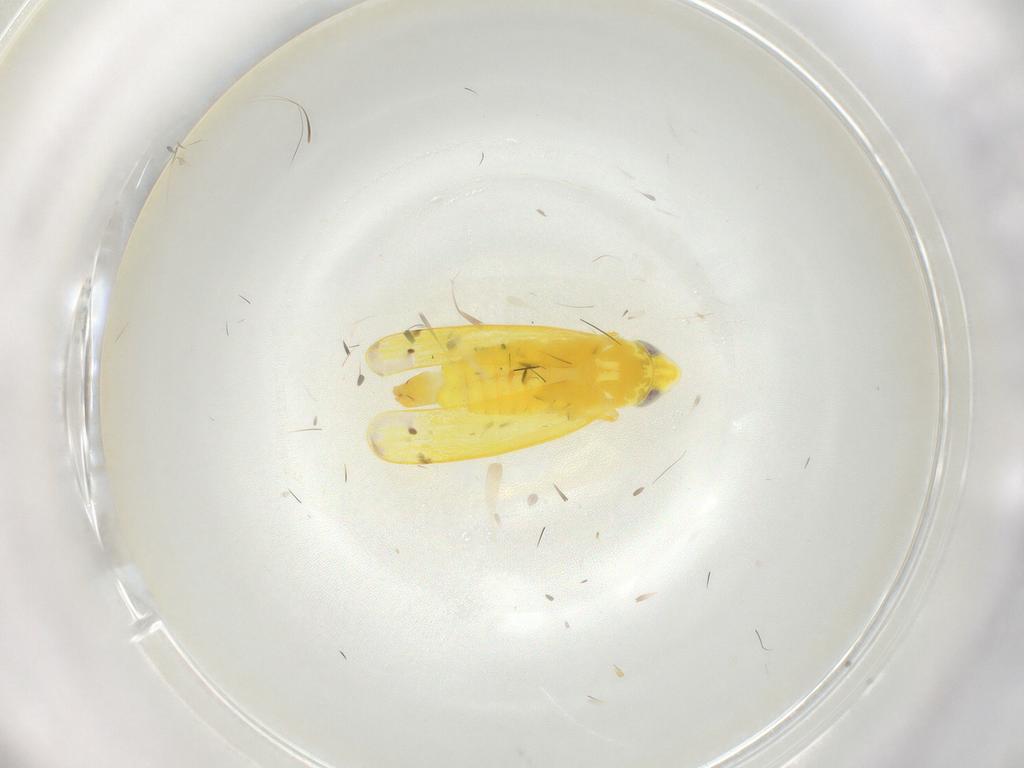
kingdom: Animalia
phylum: Arthropoda
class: Insecta
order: Hemiptera
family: Cicadellidae
